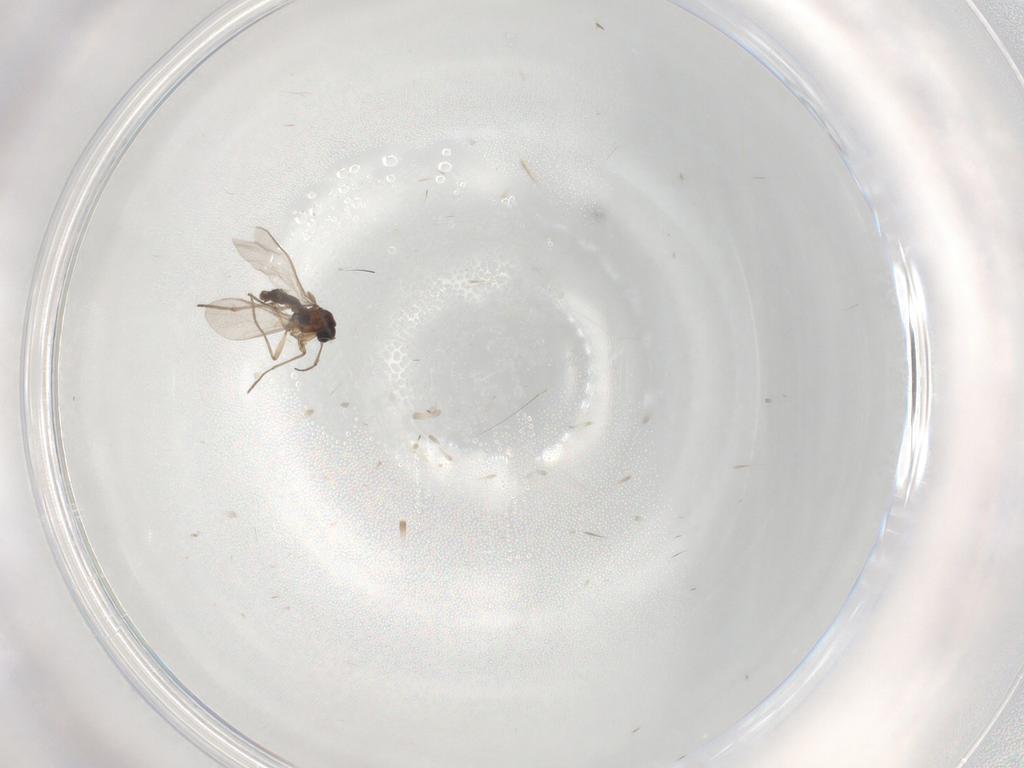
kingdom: Animalia
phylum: Arthropoda
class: Insecta
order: Diptera
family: Sciaridae
